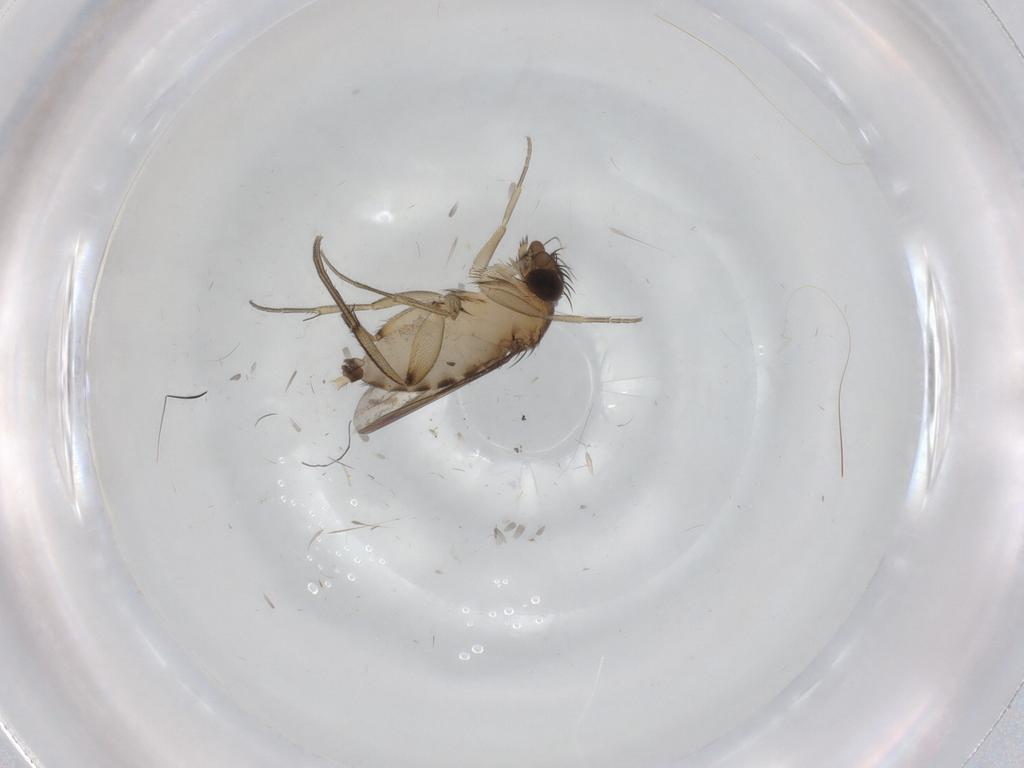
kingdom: Animalia
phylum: Arthropoda
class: Insecta
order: Diptera
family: Phoridae
